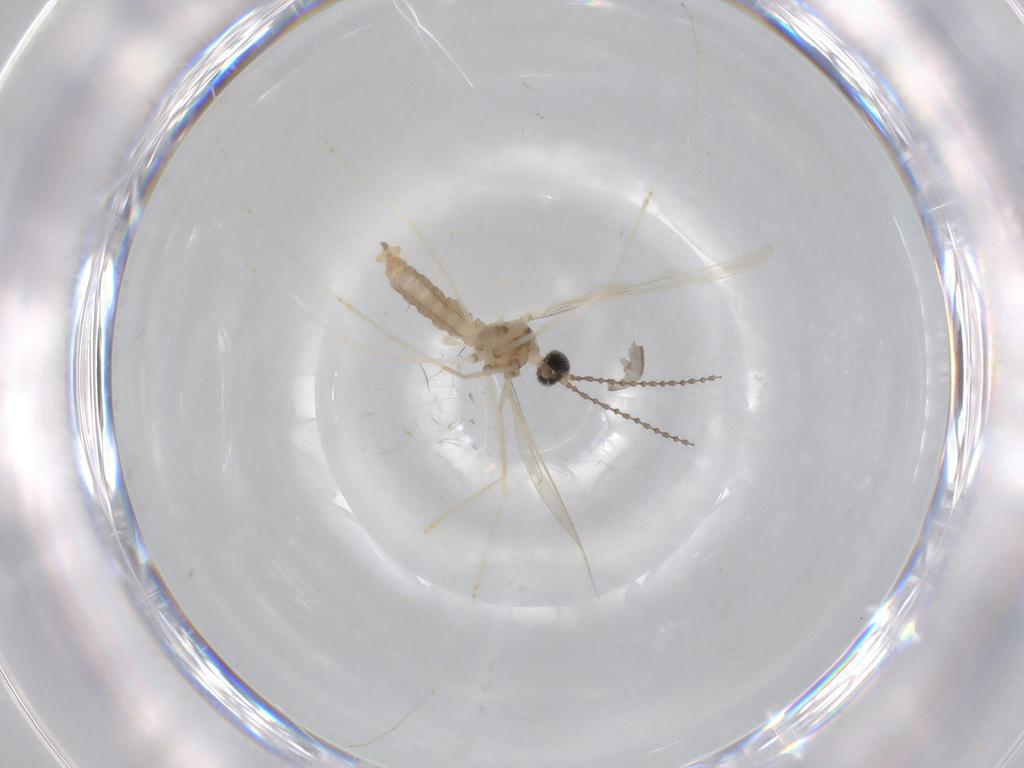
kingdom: Animalia
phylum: Arthropoda
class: Insecta
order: Diptera
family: Cecidomyiidae
